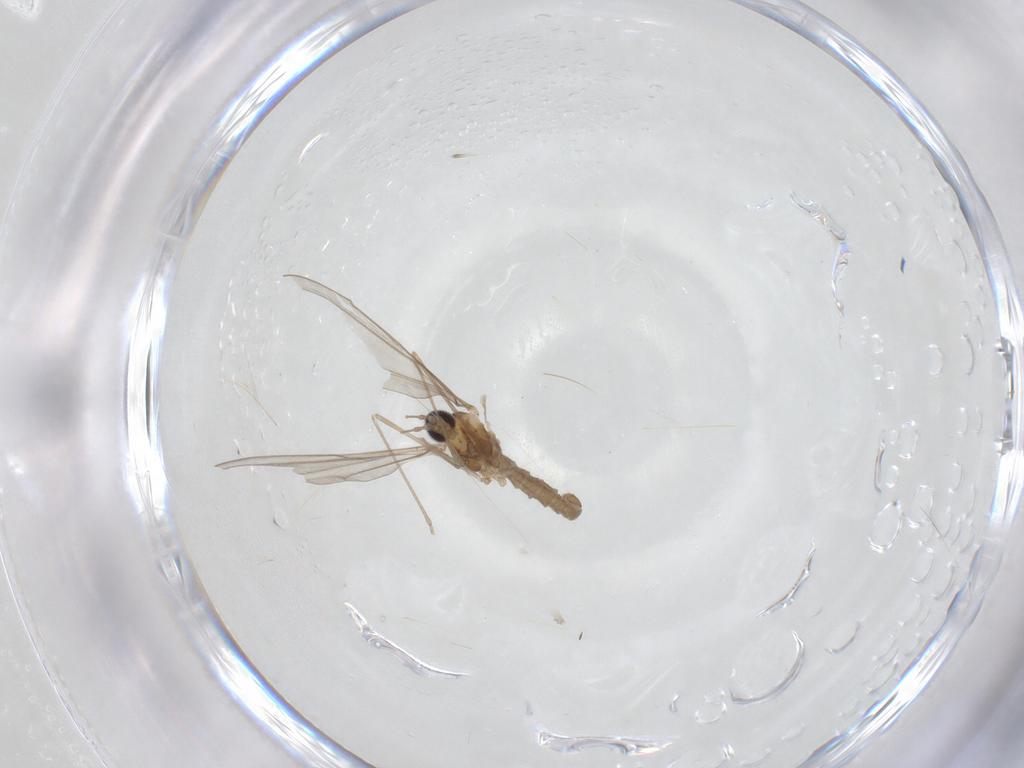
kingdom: Animalia
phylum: Arthropoda
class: Insecta
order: Diptera
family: Cecidomyiidae
